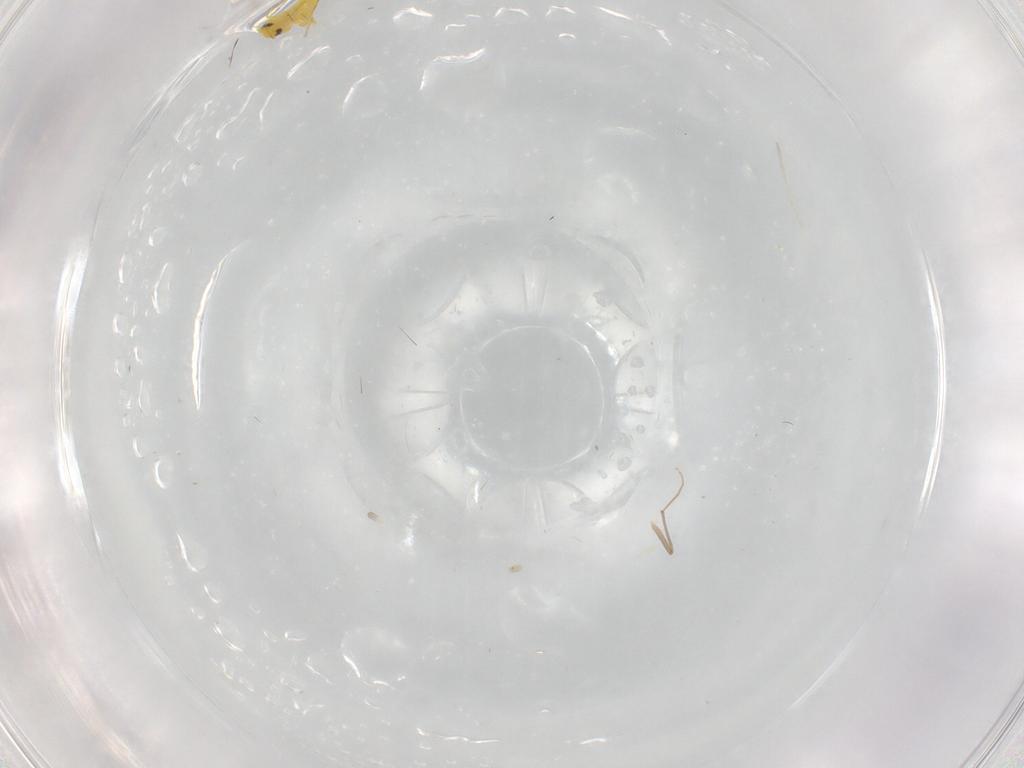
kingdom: Animalia
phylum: Arthropoda
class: Insecta
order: Hemiptera
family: Aleyrodidae
